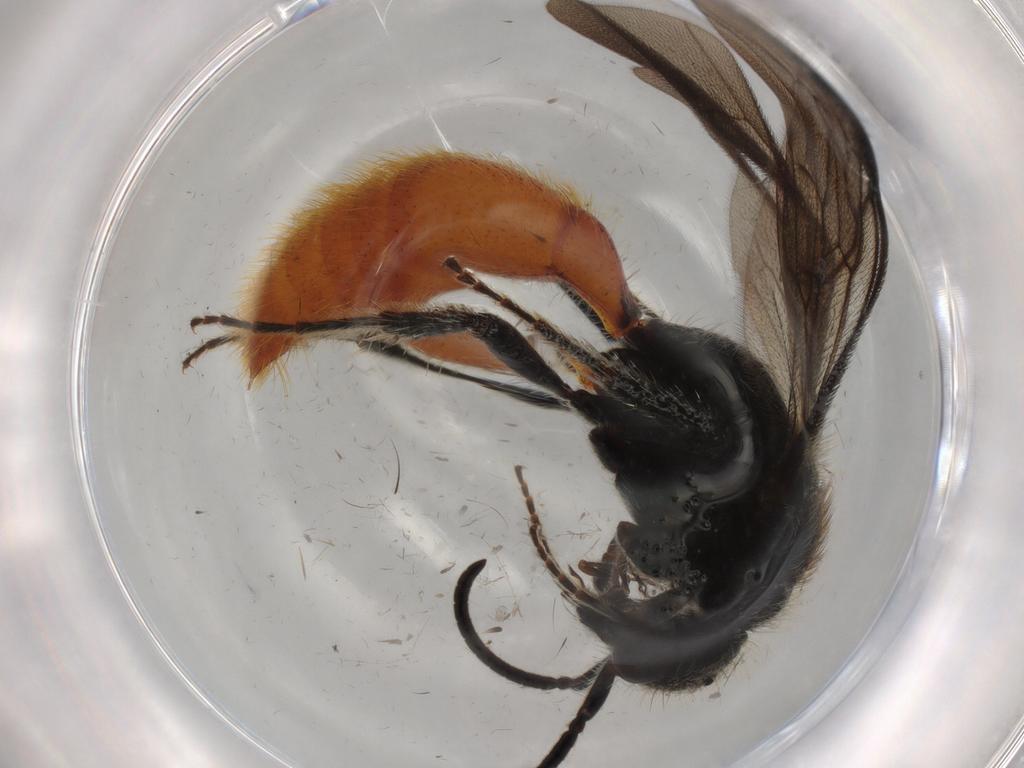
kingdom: Animalia
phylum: Arthropoda
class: Insecta
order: Hymenoptera
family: Mutillidae
